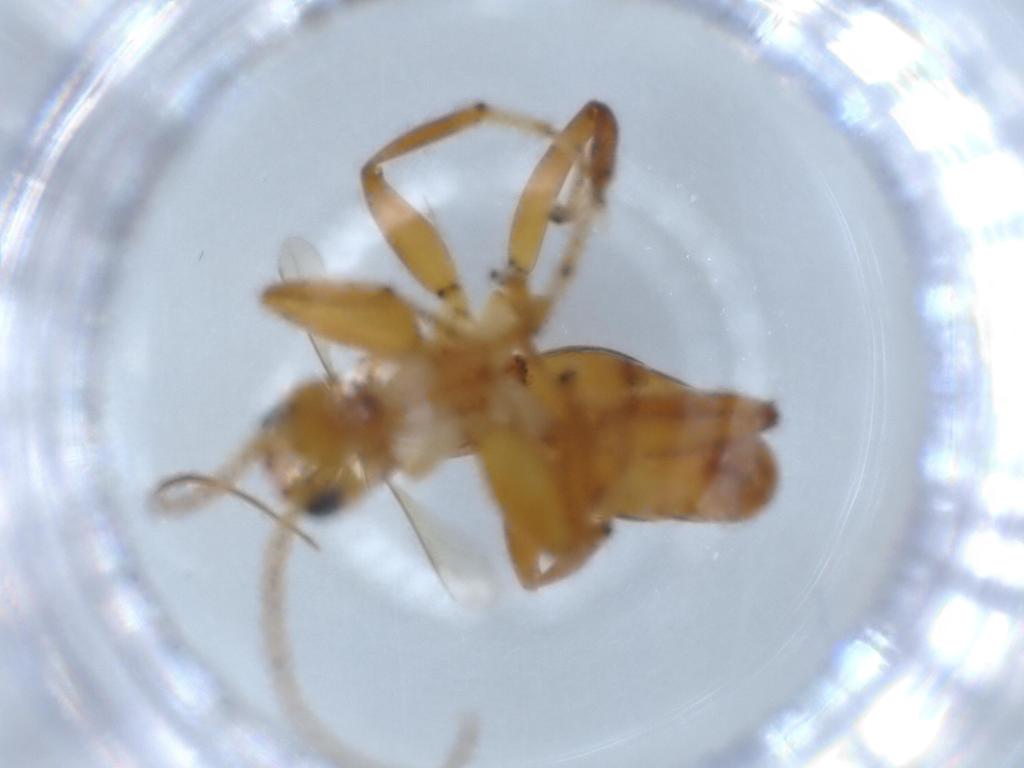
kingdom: Animalia
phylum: Arthropoda
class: Insecta
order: Hymenoptera
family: Rhopalosomatidae
